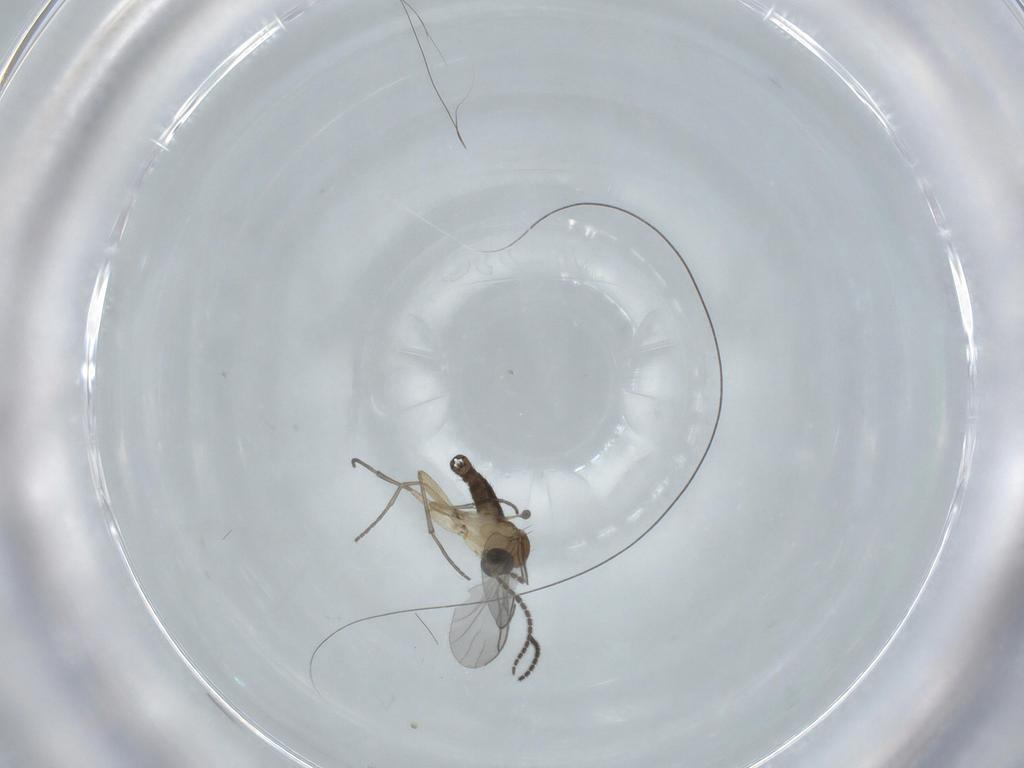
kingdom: Animalia
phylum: Arthropoda
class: Insecta
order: Diptera
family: Sciaridae
